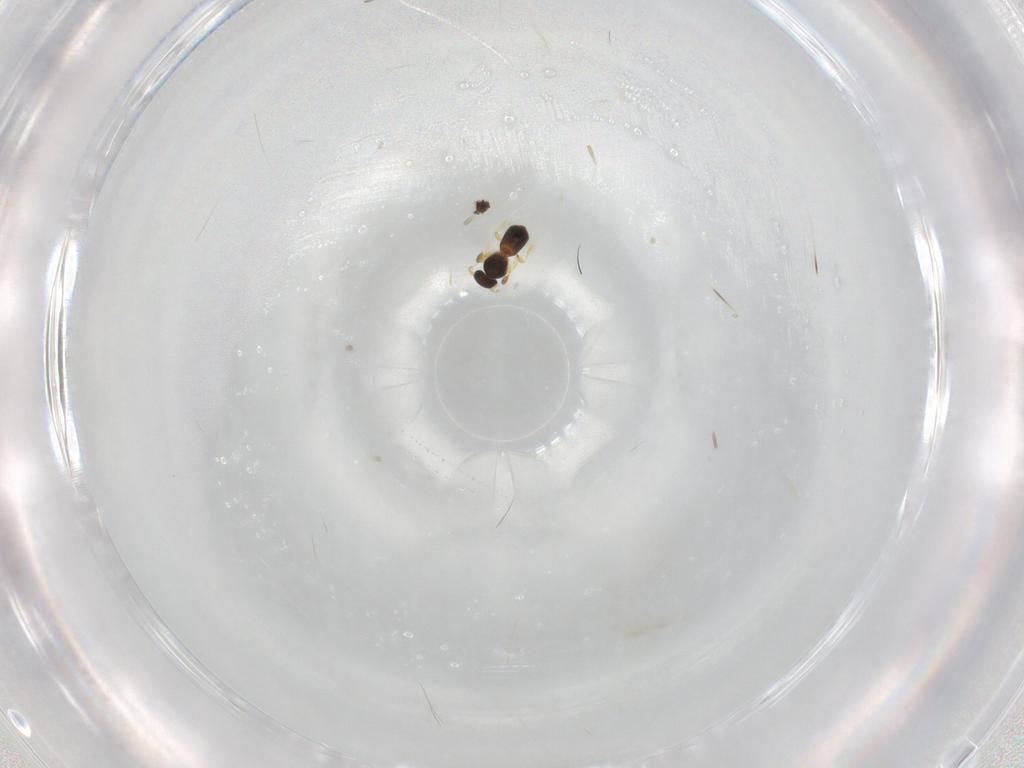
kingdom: Animalia
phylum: Arthropoda
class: Insecta
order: Hymenoptera
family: Platygastridae
